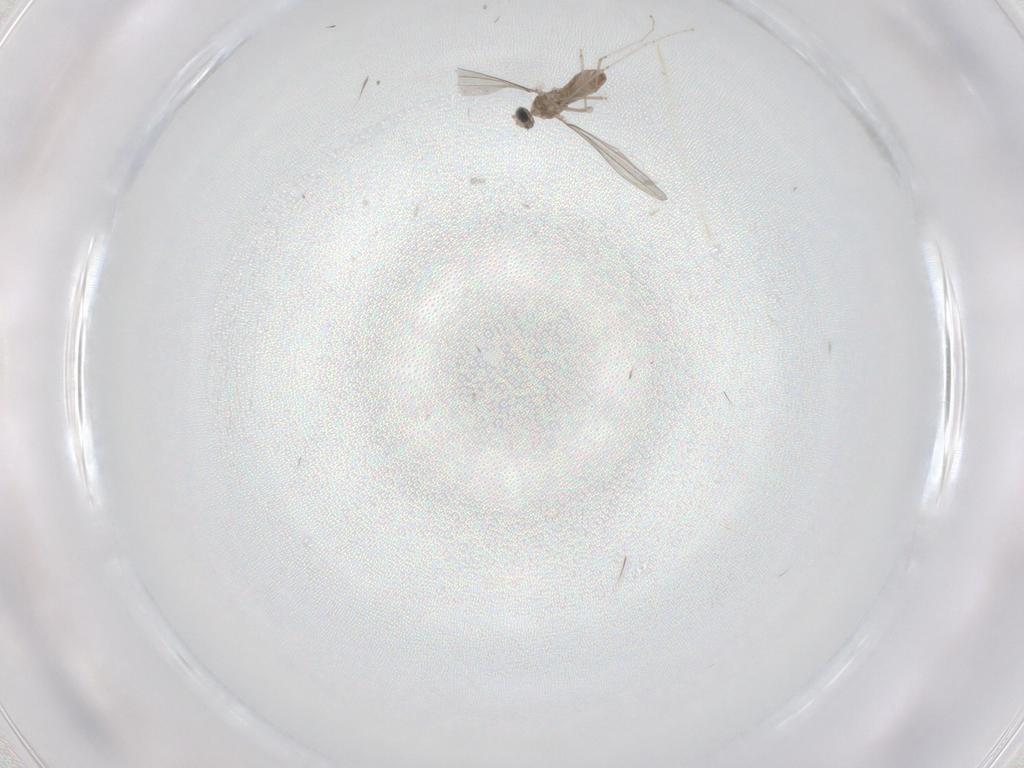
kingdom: Animalia
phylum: Arthropoda
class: Insecta
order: Diptera
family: Cecidomyiidae
